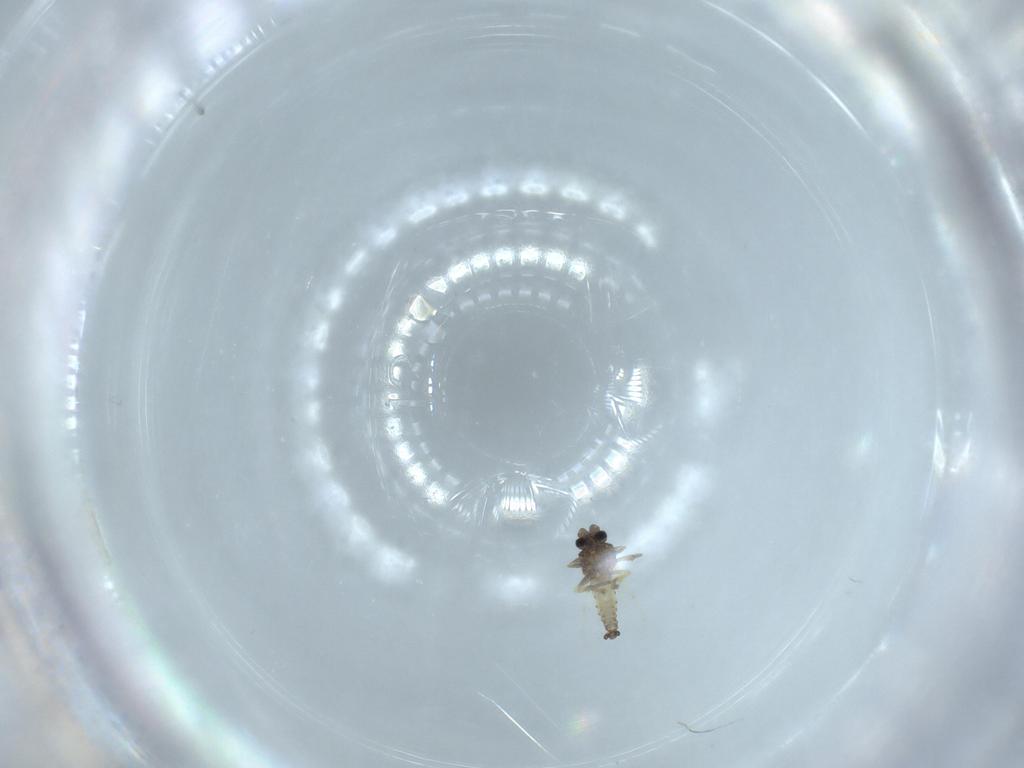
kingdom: Animalia
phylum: Arthropoda
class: Insecta
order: Diptera
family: Ceratopogonidae
